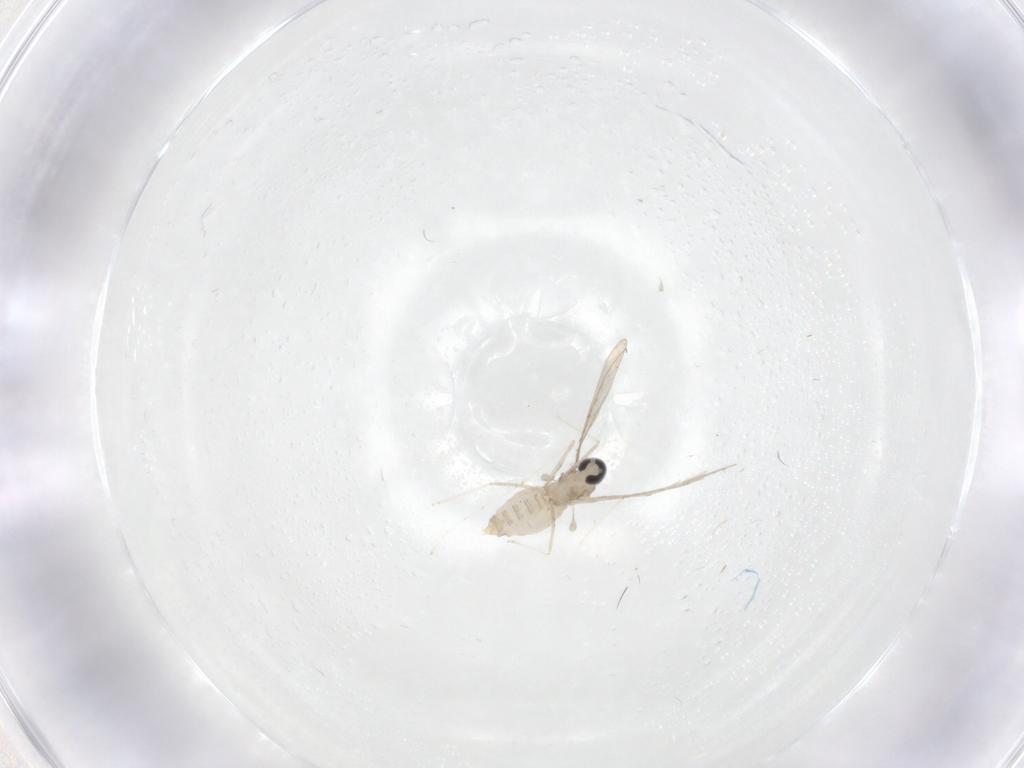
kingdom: Animalia
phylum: Arthropoda
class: Insecta
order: Diptera
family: Ceratopogonidae
